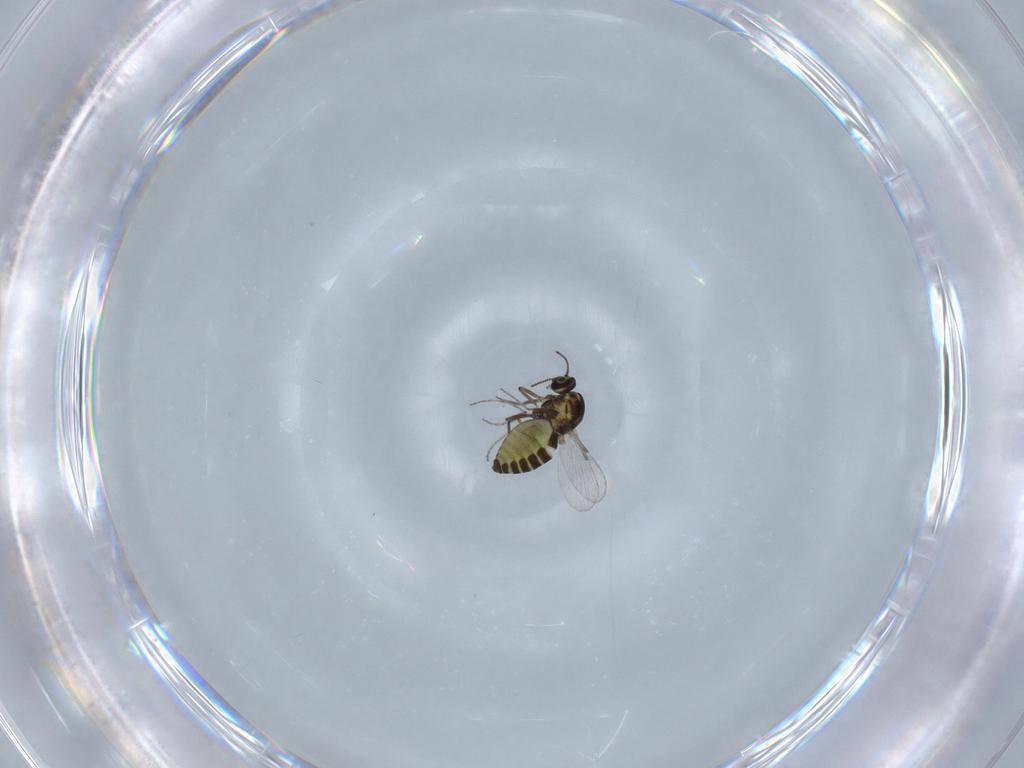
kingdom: Animalia
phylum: Arthropoda
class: Insecta
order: Diptera
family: Ceratopogonidae
